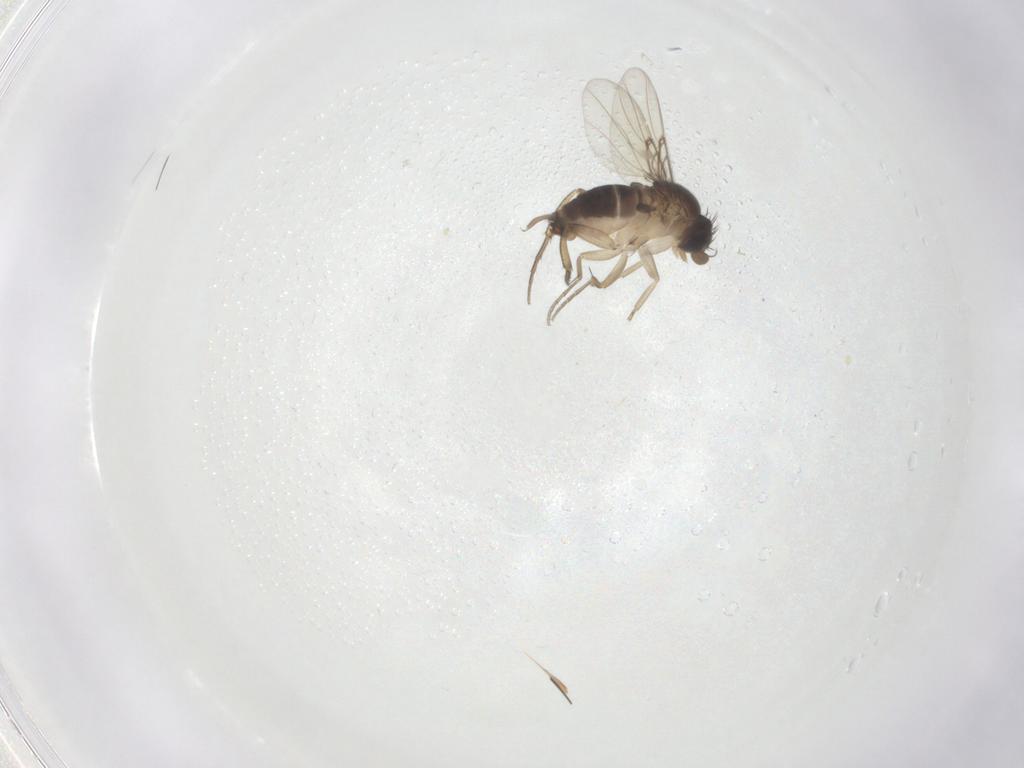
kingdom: Animalia
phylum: Arthropoda
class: Insecta
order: Diptera
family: Phoridae
